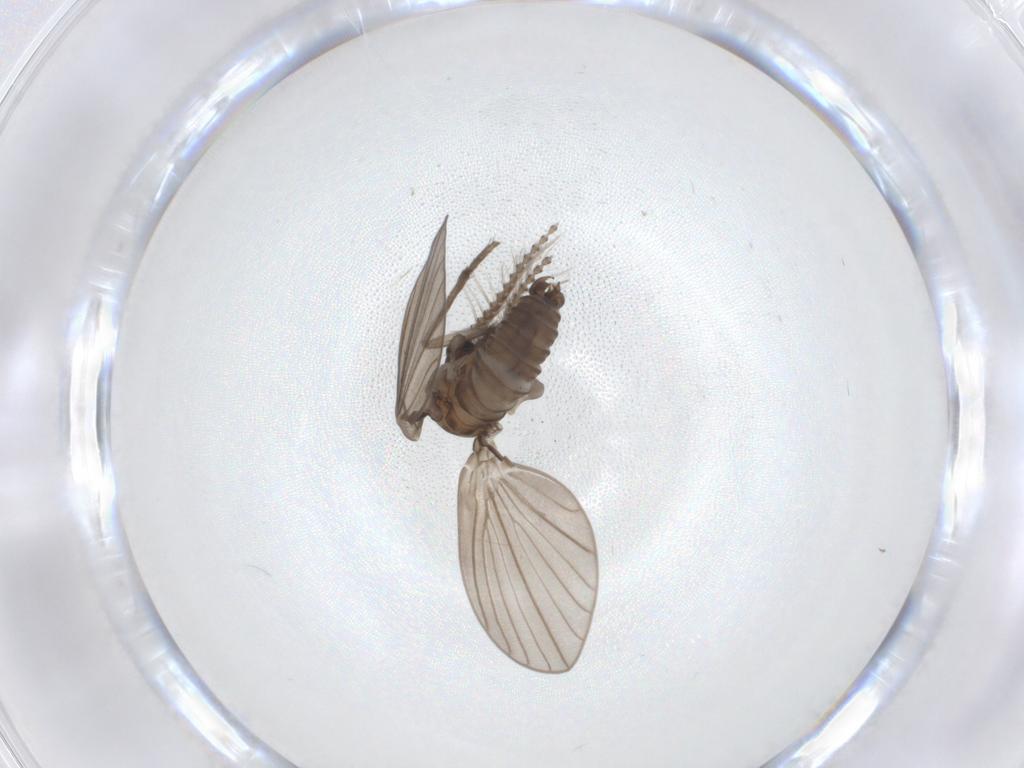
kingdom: Animalia
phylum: Arthropoda
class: Insecta
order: Diptera
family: Psychodidae
